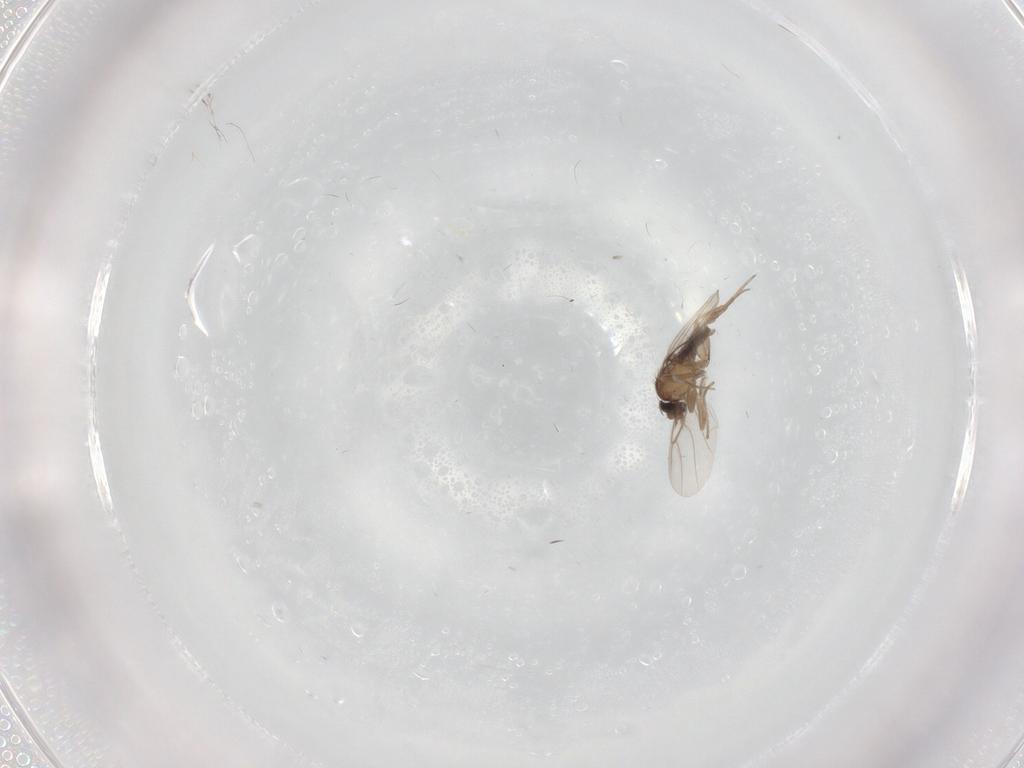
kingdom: Animalia
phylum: Arthropoda
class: Insecta
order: Diptera
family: Phoridae
